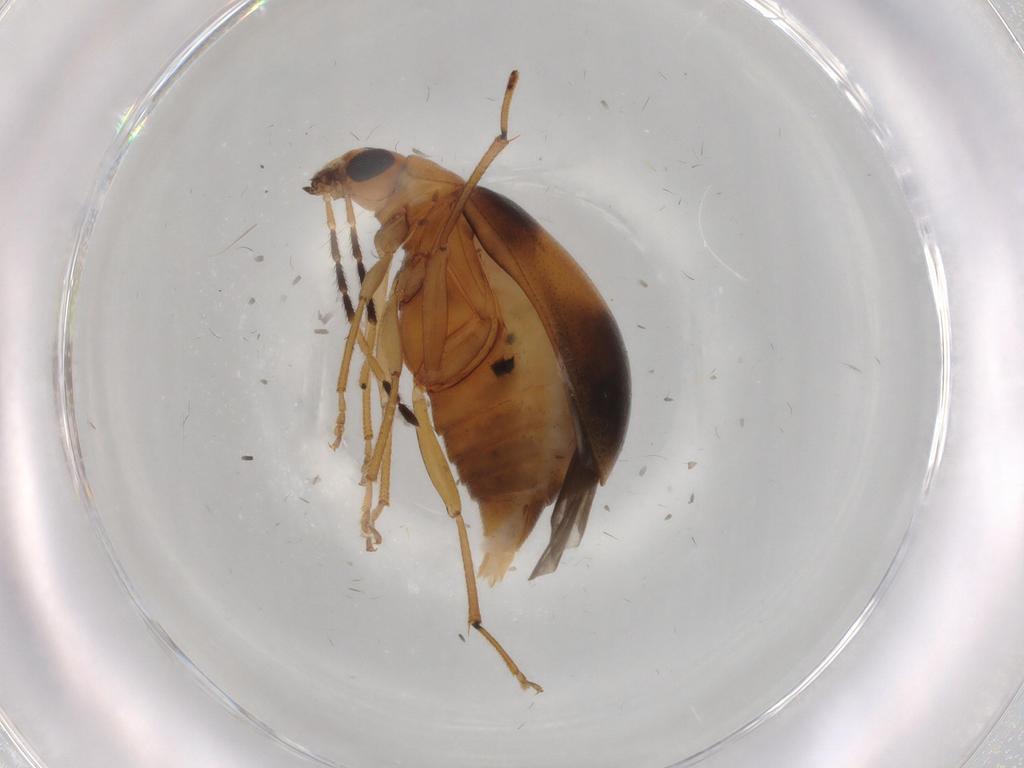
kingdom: Animalia
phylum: Arthropoda
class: Insecta
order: Coleoptera
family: Chrysomelidae
